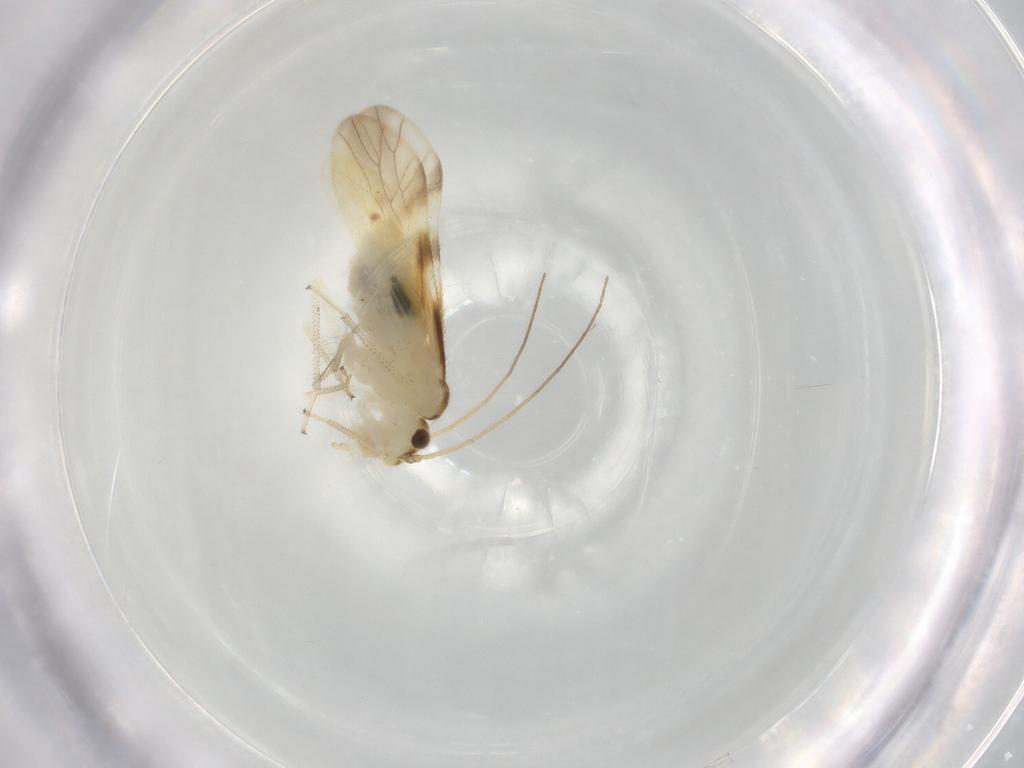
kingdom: Animalia
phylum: Arthropoda
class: Insecta
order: Psocodea
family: Caeciliusidae
